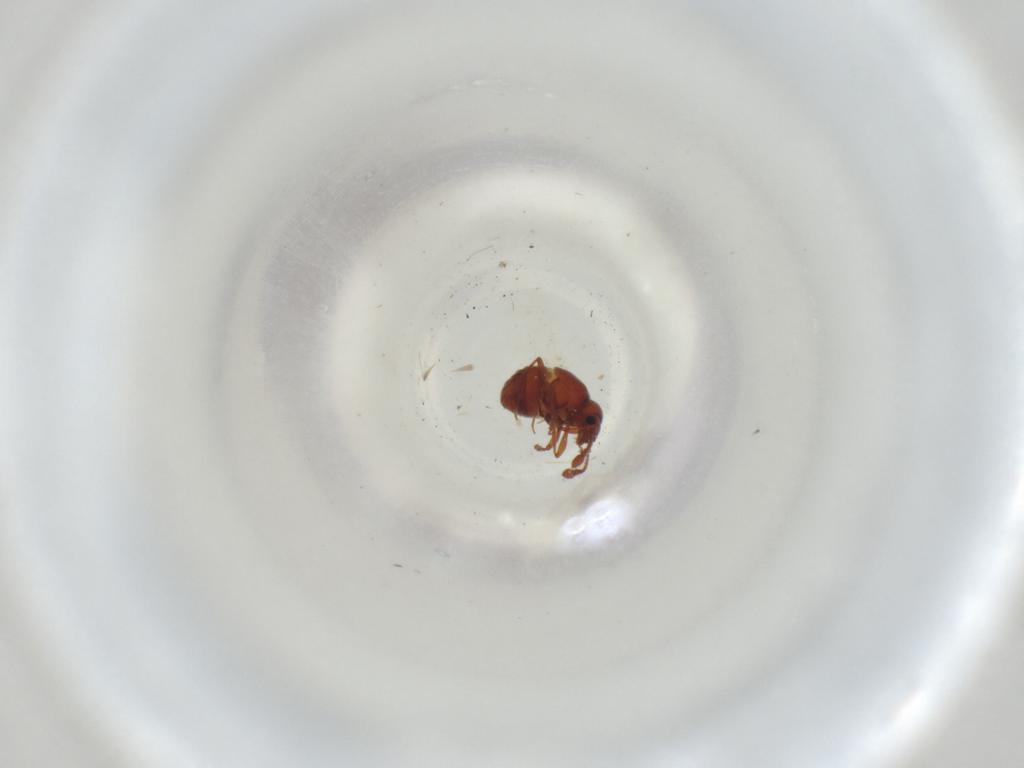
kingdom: Animalia
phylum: Arthropoda
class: Insecta
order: Coleoptera
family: Staphylinidae
